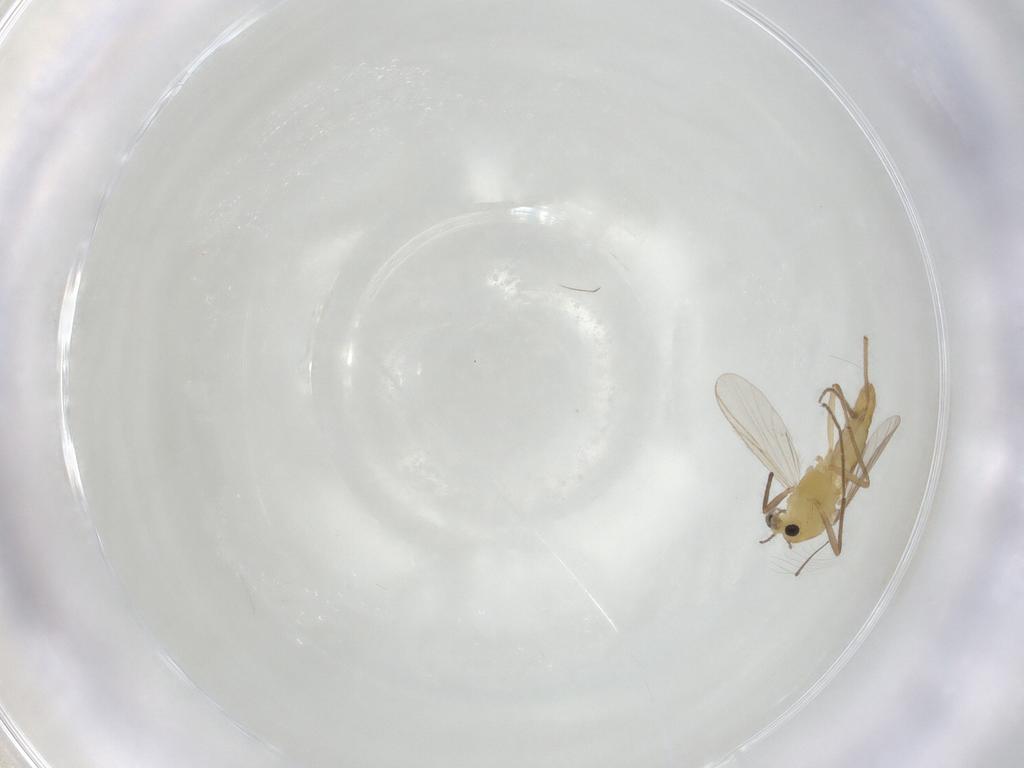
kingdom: Animalia
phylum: Arthropoda
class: Insecta
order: Diptera
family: Chironomidae
